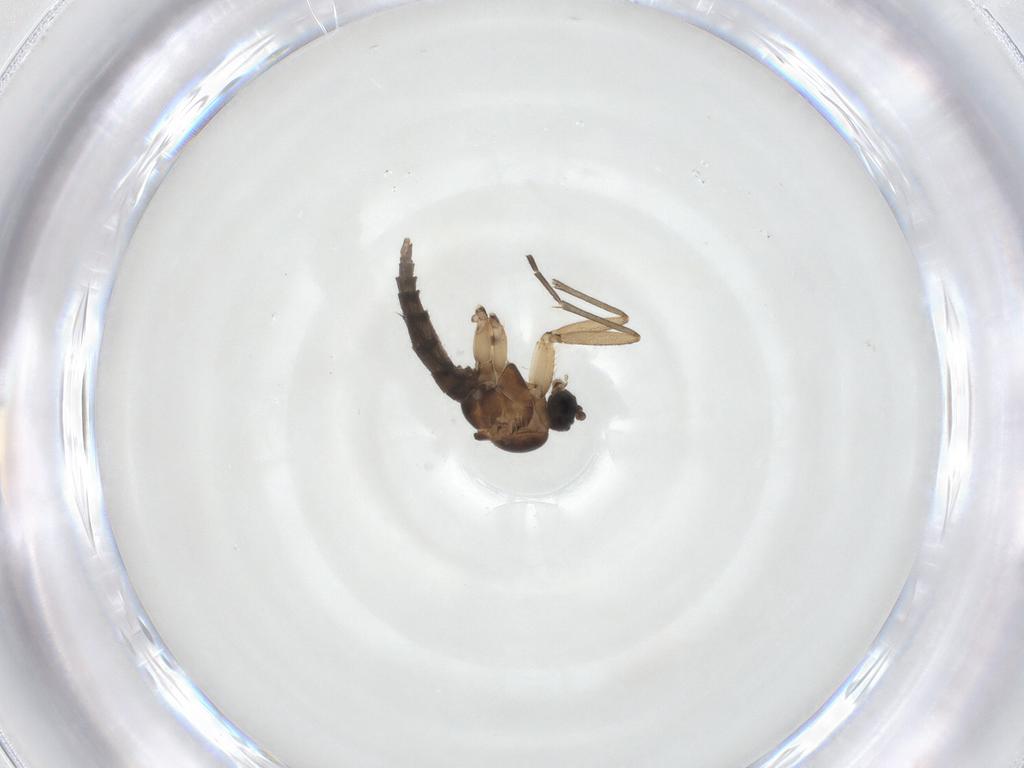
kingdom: Animalia
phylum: Arthropoda
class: Insecta
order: Diptera
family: Sciaridae
